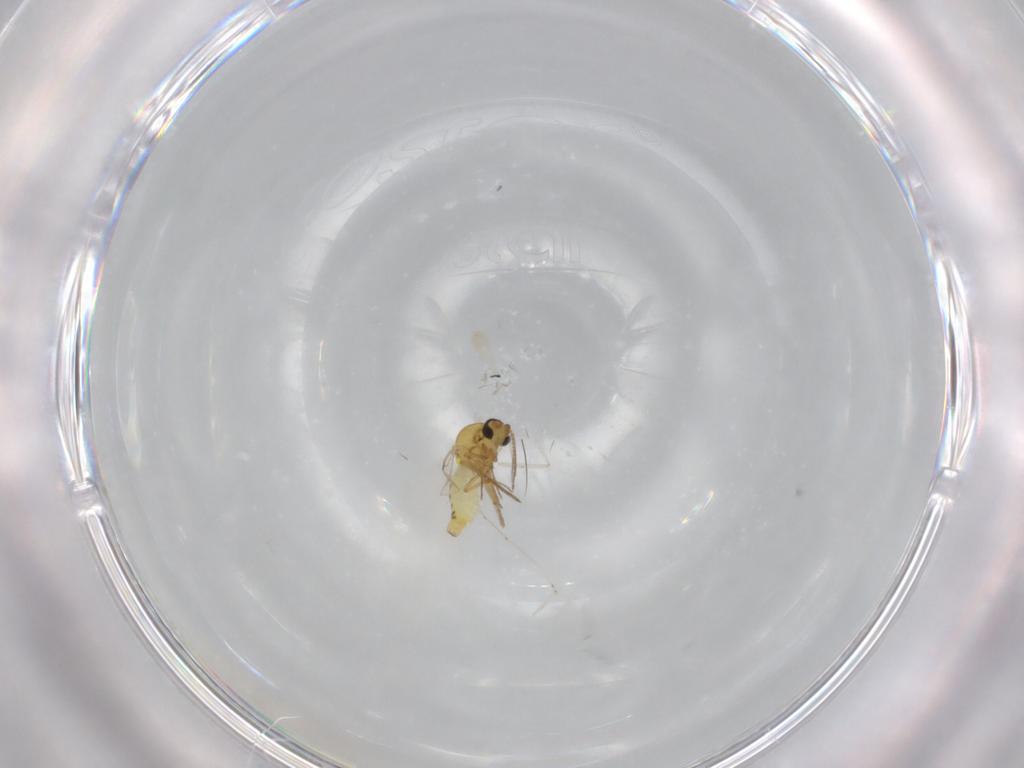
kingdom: Animalia
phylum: Arthropoda
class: Insecta
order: Diptera
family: Ceratopogonidae
